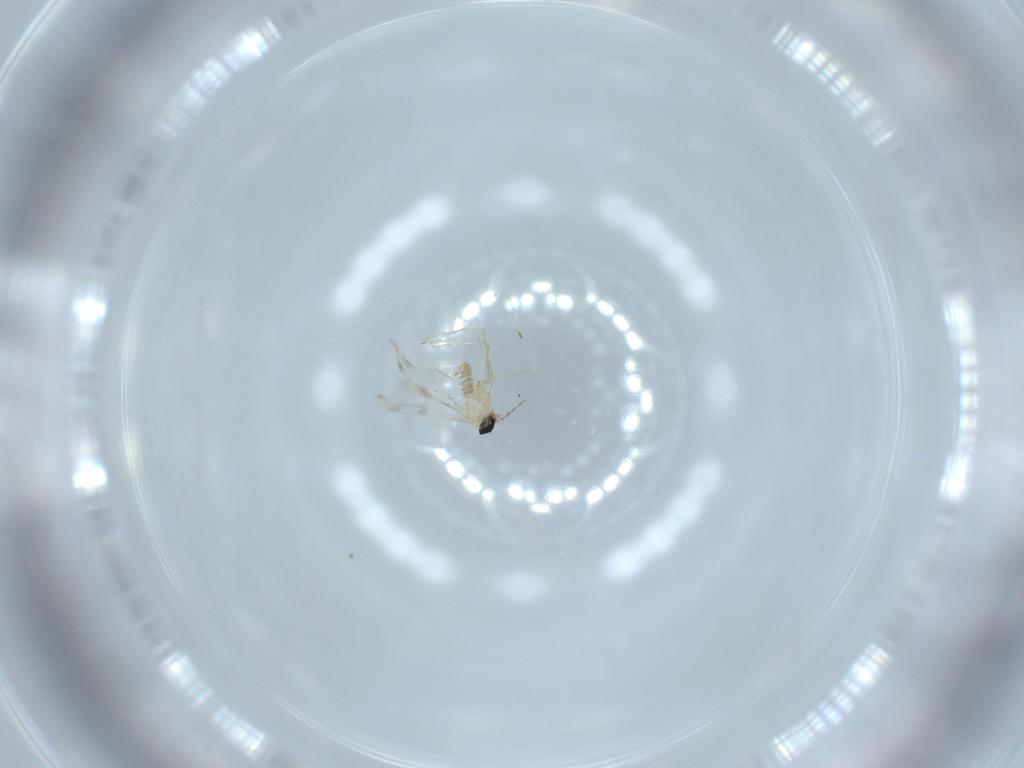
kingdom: Animalia
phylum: Arthropoda
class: Insecta
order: Diptera
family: Cecidomyiidae
